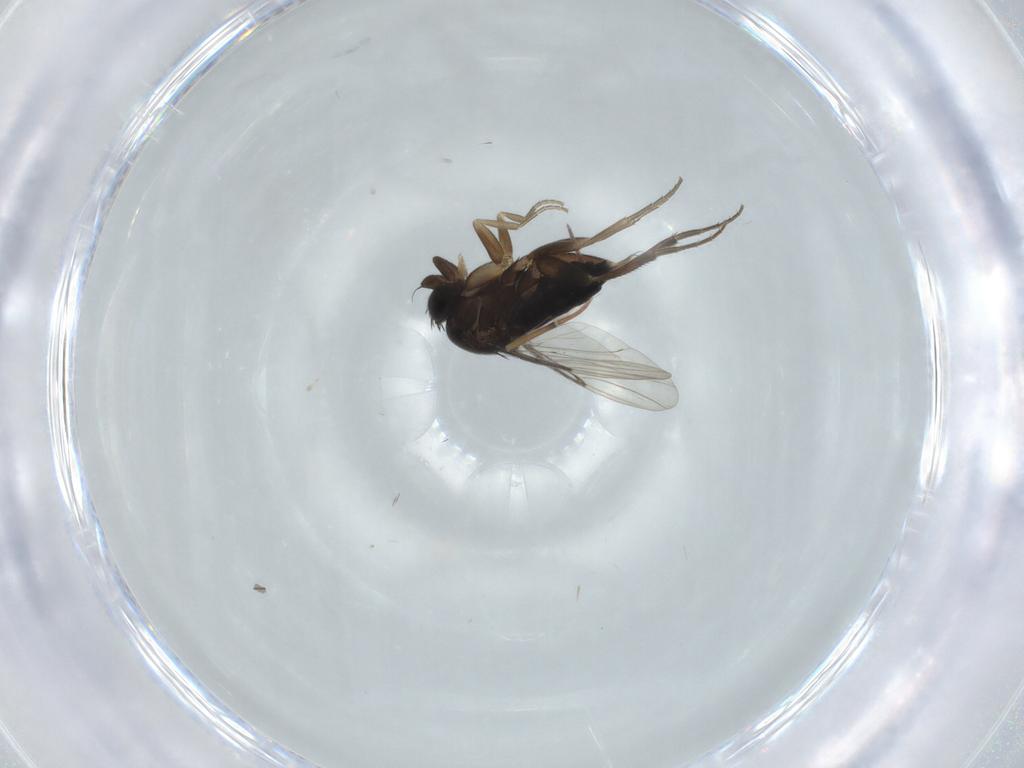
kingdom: Animalia
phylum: Arthropoda
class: Insecta
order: Diptera
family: Phoridae
